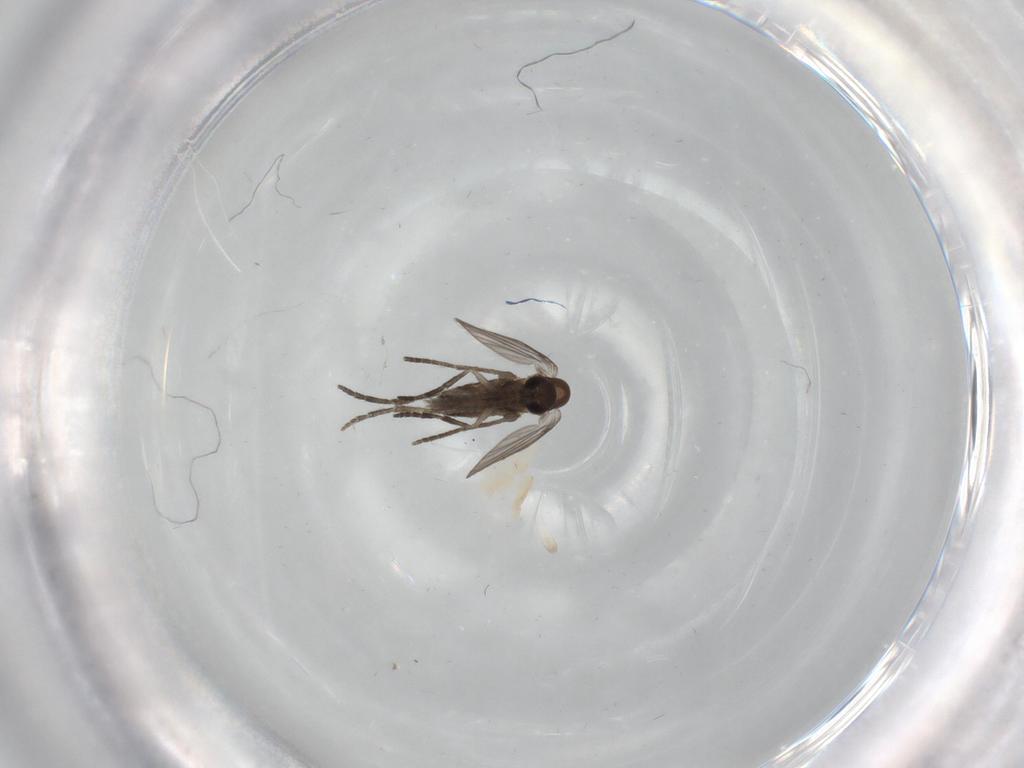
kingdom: Animalia
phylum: Arthropoda
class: Insecta
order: Diptera
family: Psychodidae
